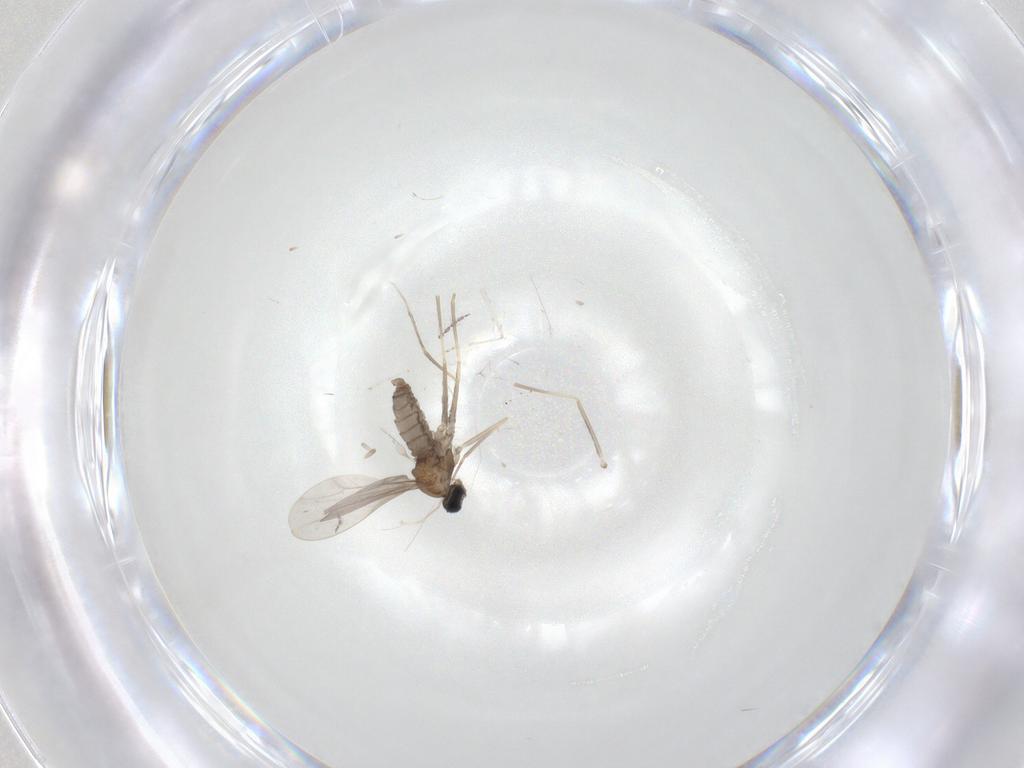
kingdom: Animalia
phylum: Arthropoda
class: Insecta
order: Diptera
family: Cecidomyiidae
